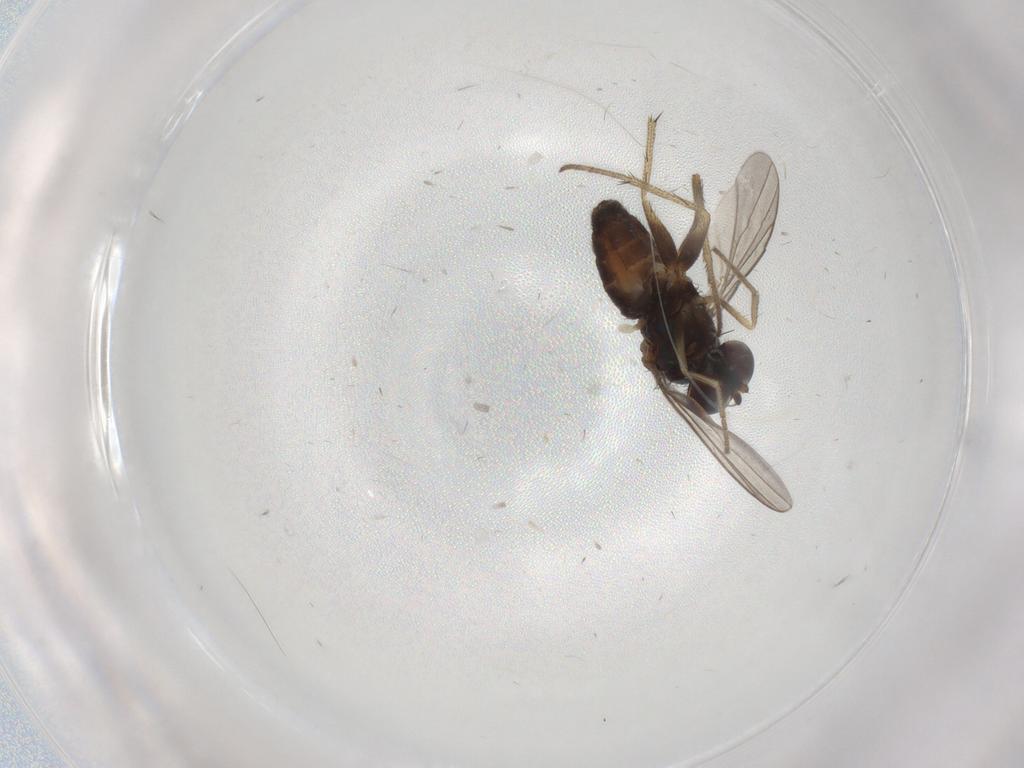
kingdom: Animalia
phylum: Arthropoda
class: Insecta
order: Diptera
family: Dolichopodidae
